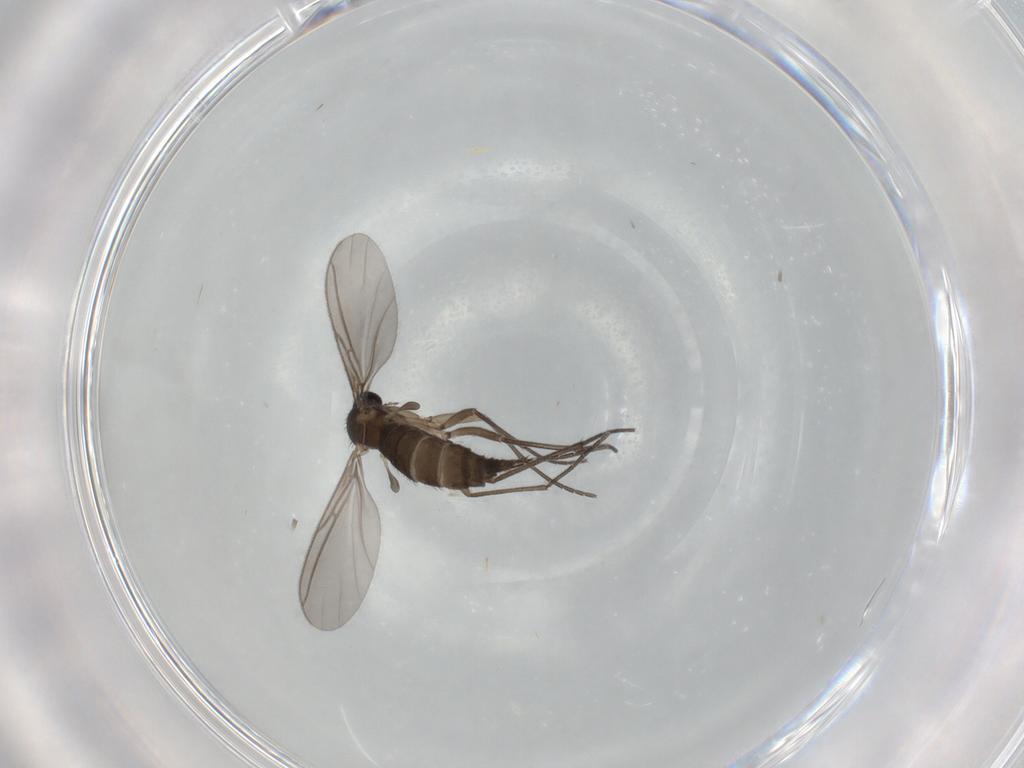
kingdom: Animalia
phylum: Arthropoda
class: Insecta
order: Diptera
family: Sciaridae
